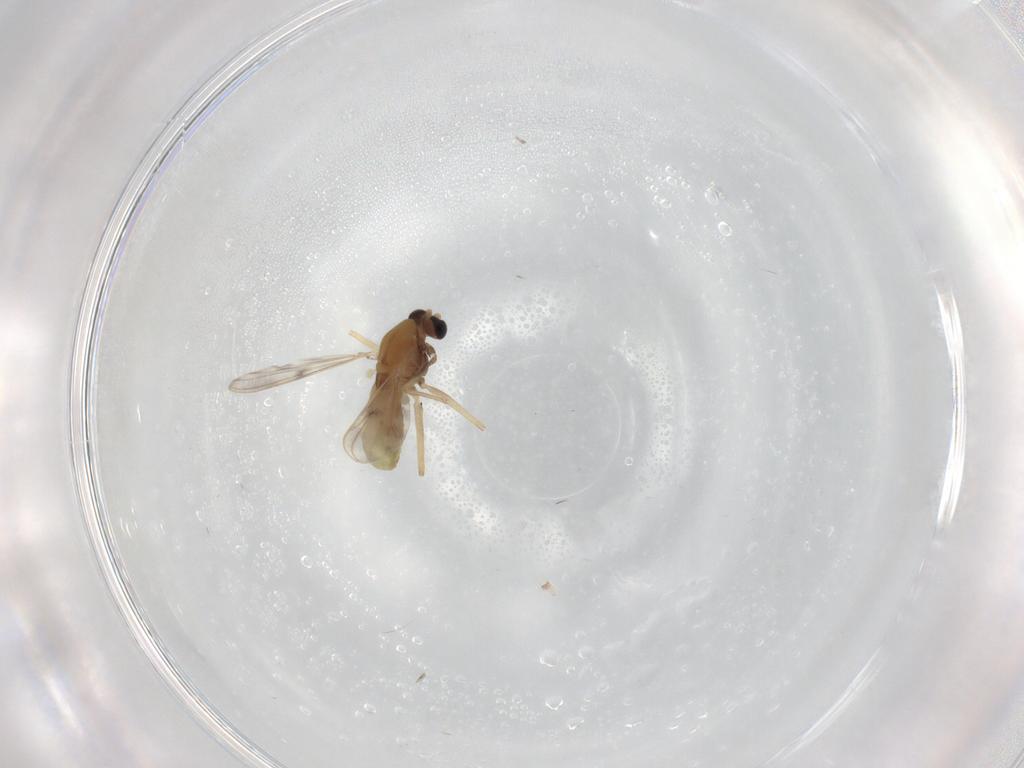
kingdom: Animalia
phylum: Arthropoda
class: Insecta
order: Diptera
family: Chironomidae
